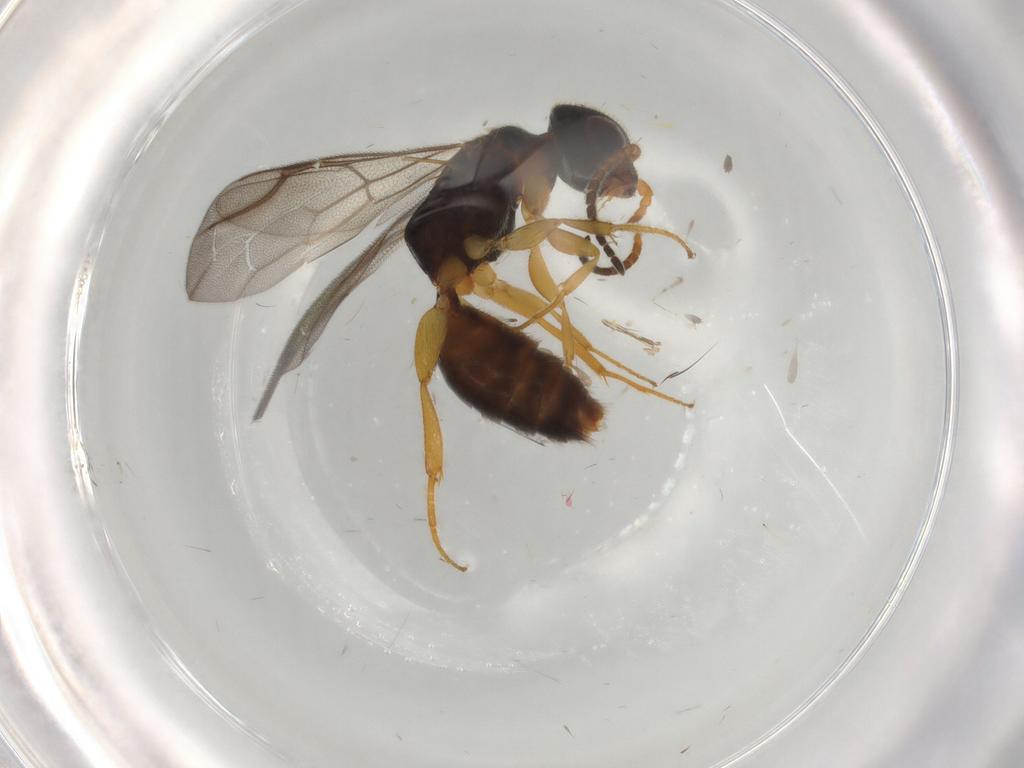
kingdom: Animalia
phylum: Arthropoda
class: Insecta
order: Hymenoptera
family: Bethylidae
